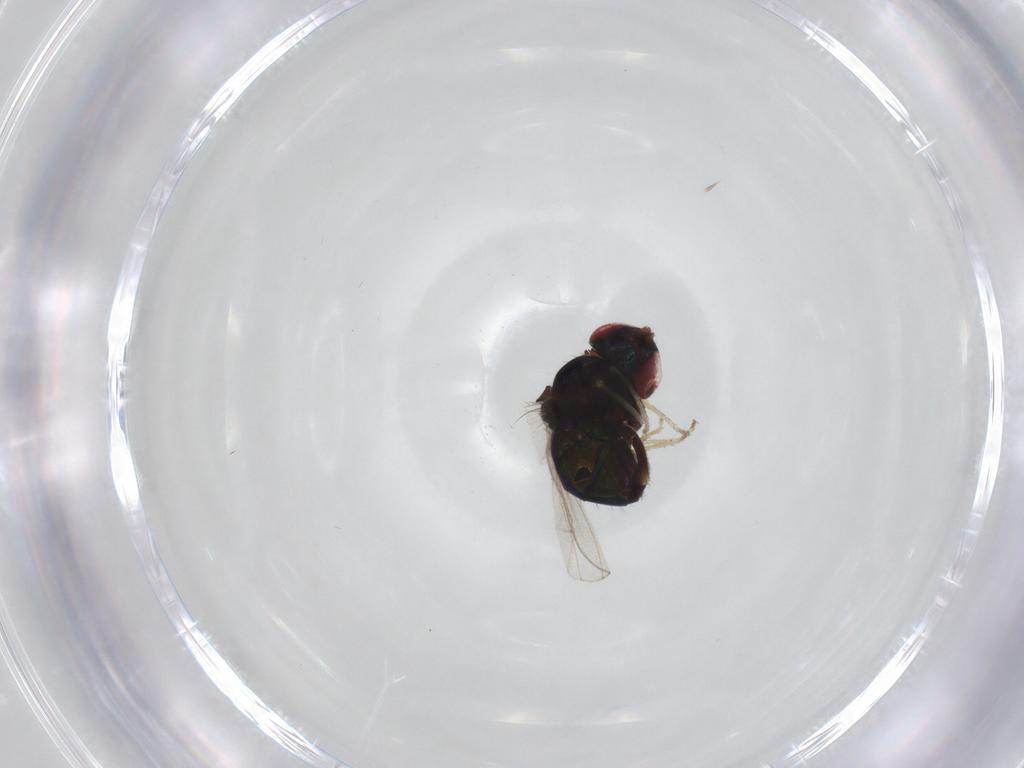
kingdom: Animalia
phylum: Arthropoda
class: Insecta
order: Diptera
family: Ephydridae
